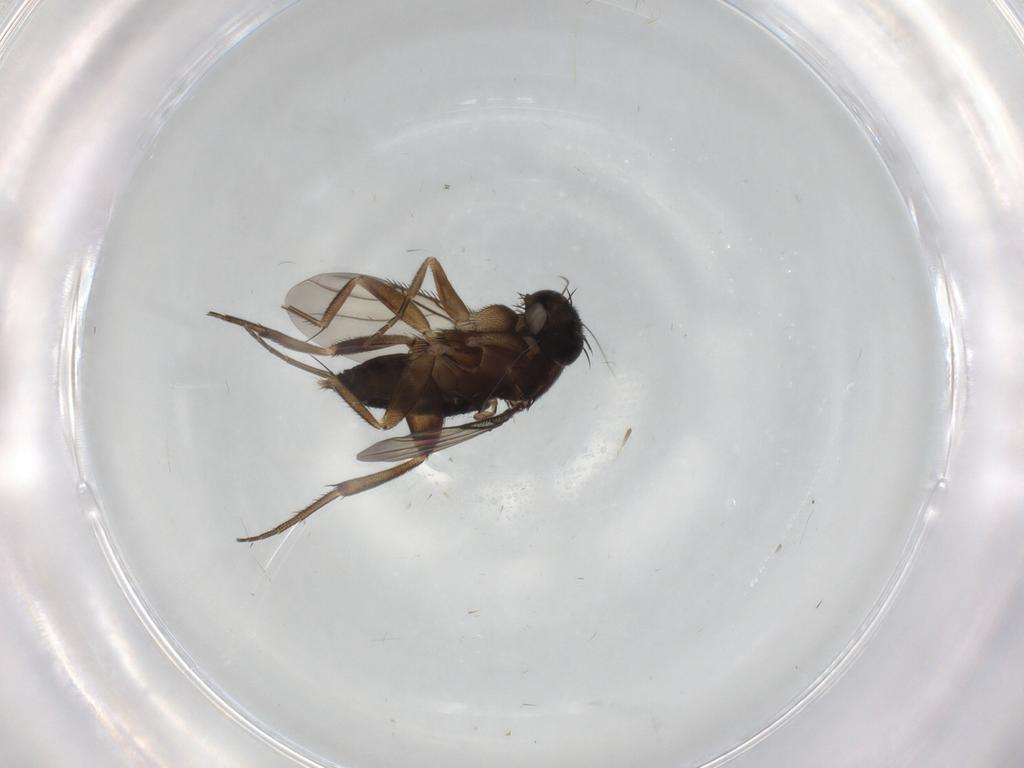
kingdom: Animalia
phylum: Arthropoda
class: Insecta
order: Diptera
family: Phoridae
